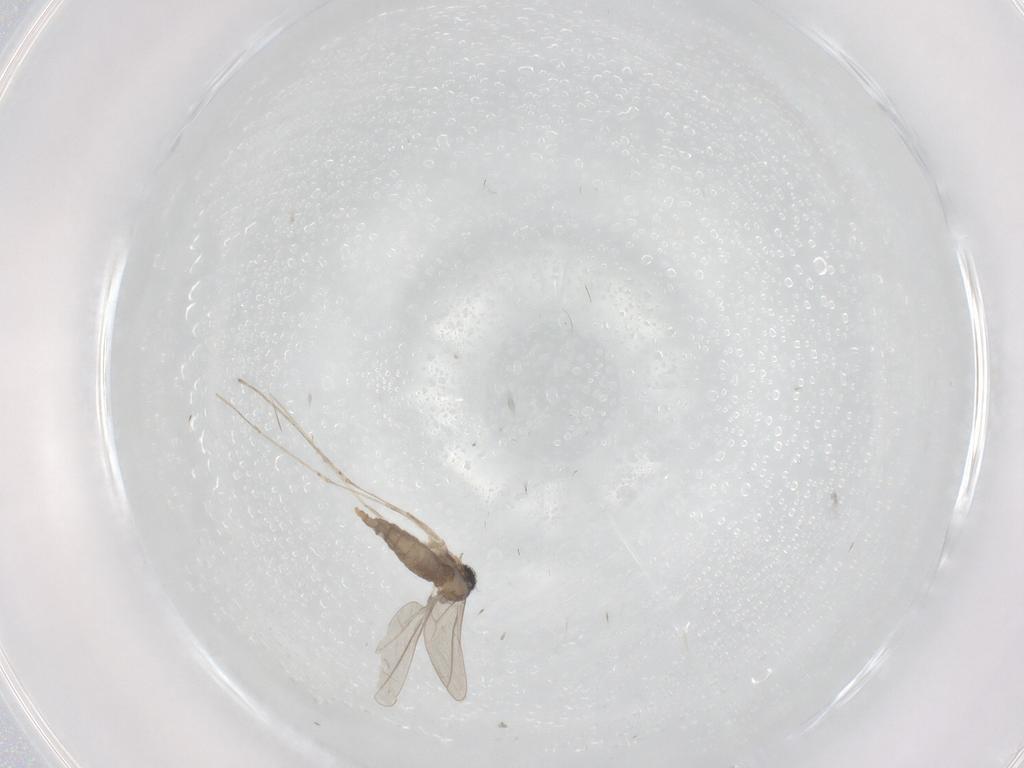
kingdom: Animalia
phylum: Arthropoda
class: Insecta
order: Diptera
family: Cecidomyiidae
